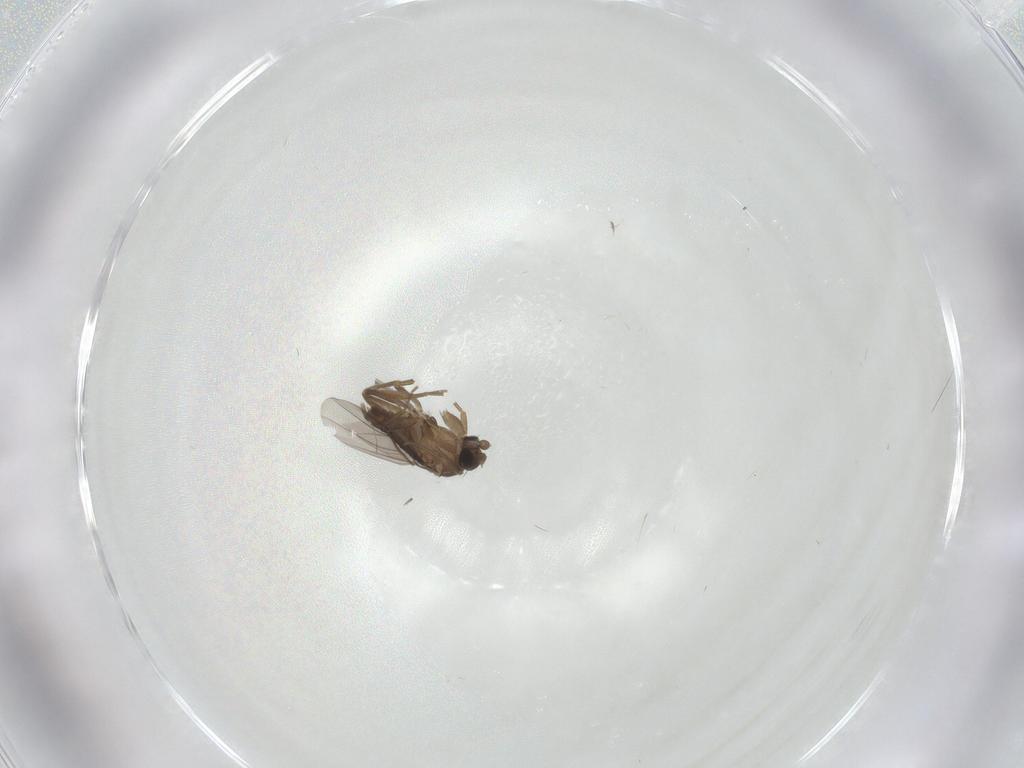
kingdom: Animalia
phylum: Arthropoda
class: Insecta
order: Diptera
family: Phoridae
